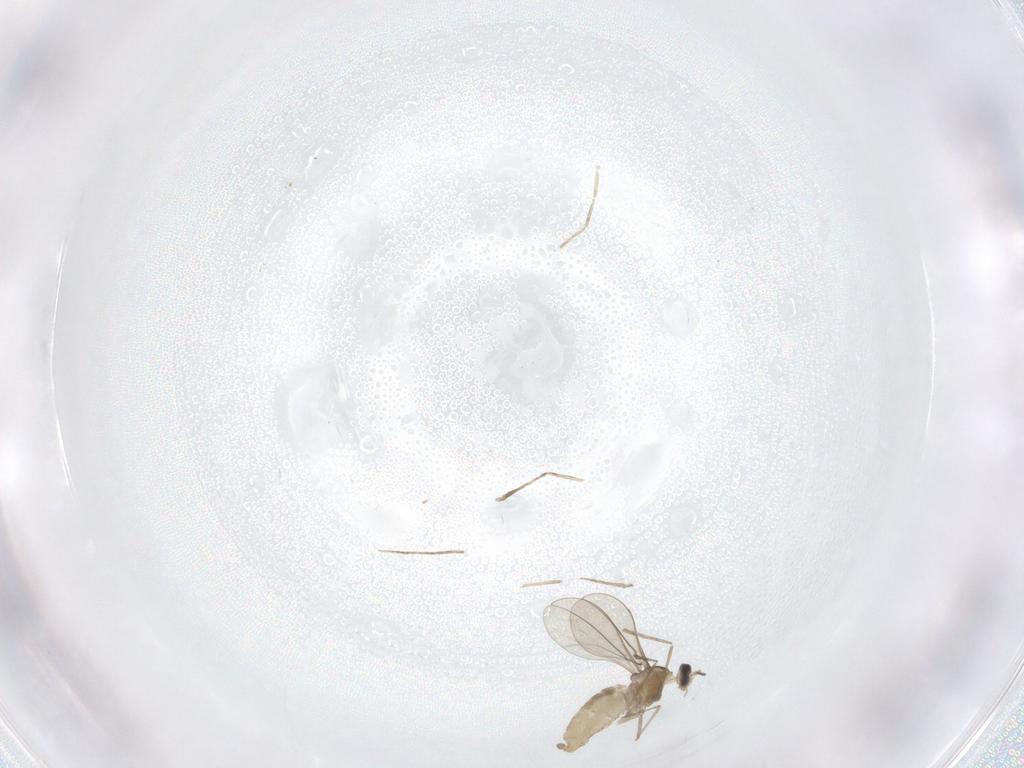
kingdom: Animalia
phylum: Arthropoda
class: Insecta
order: Diptera
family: Cecidomyiidae
